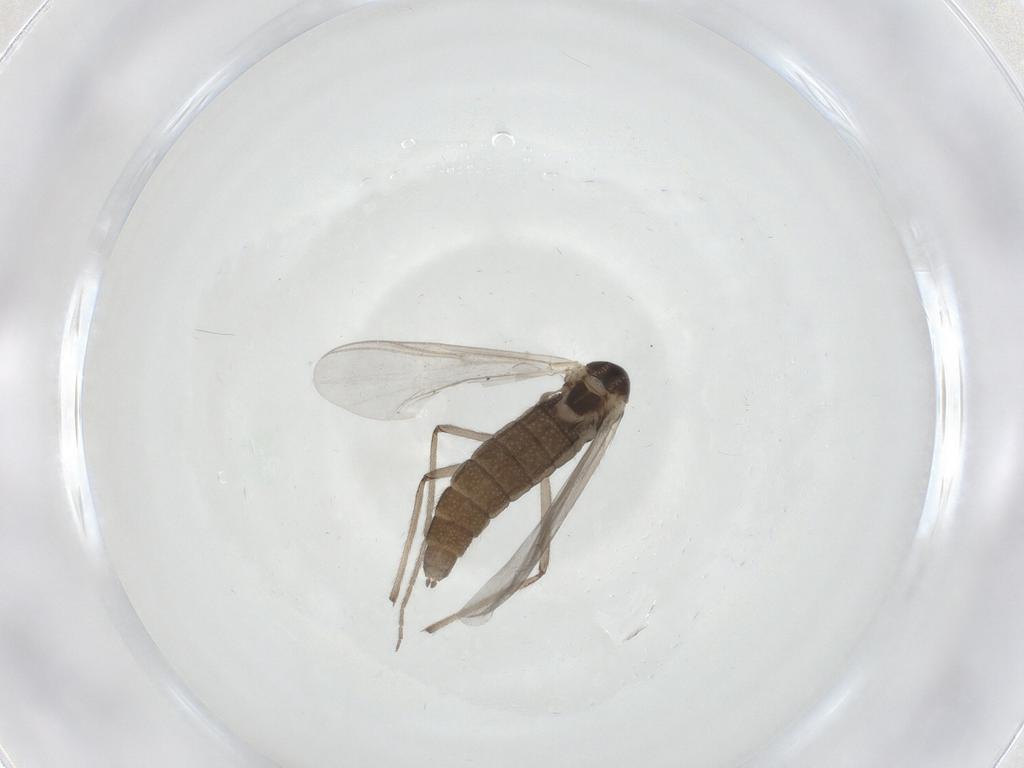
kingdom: Animalia
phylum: Arthropoda
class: Insecta
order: Diptera
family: Chironomidae
